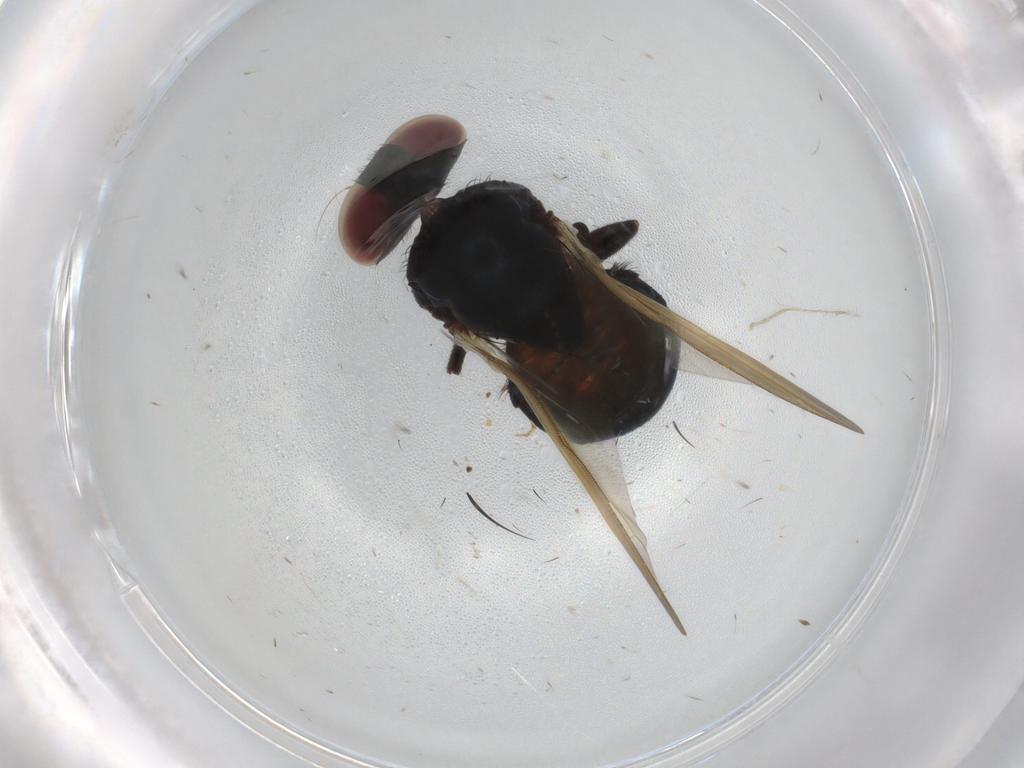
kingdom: Animalia
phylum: Arthropoda
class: Insecta
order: Diptera
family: Lonchaeidae
